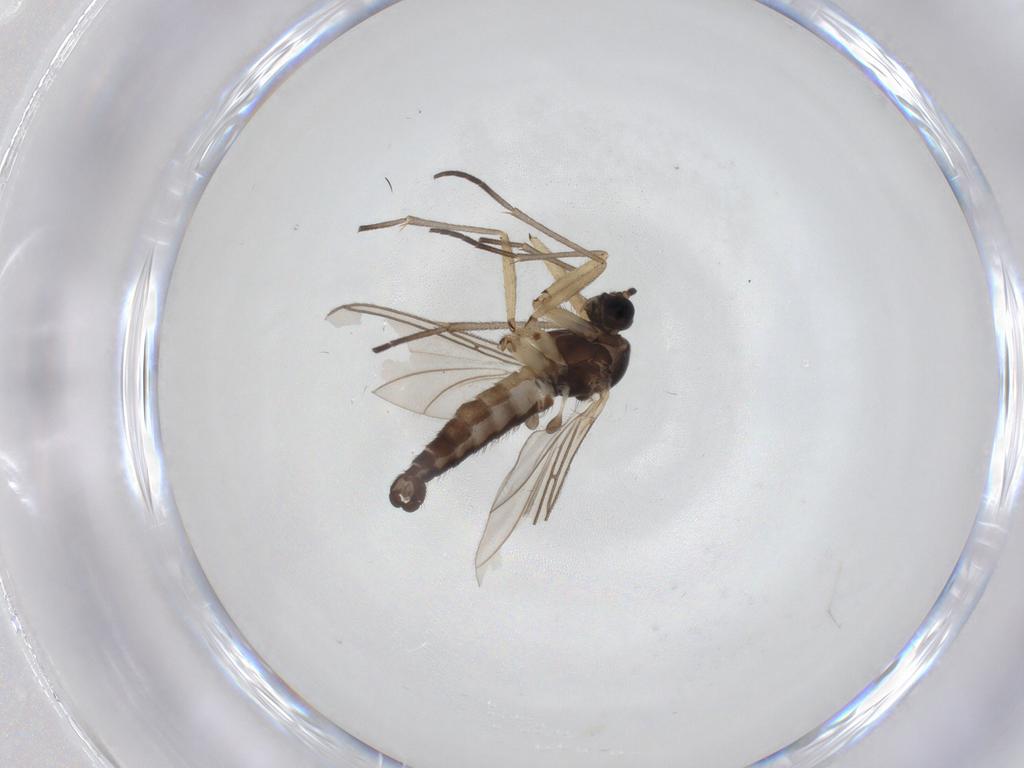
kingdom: Animalia
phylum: Arthropoda
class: Insecta
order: Diptera
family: Sciaridae
